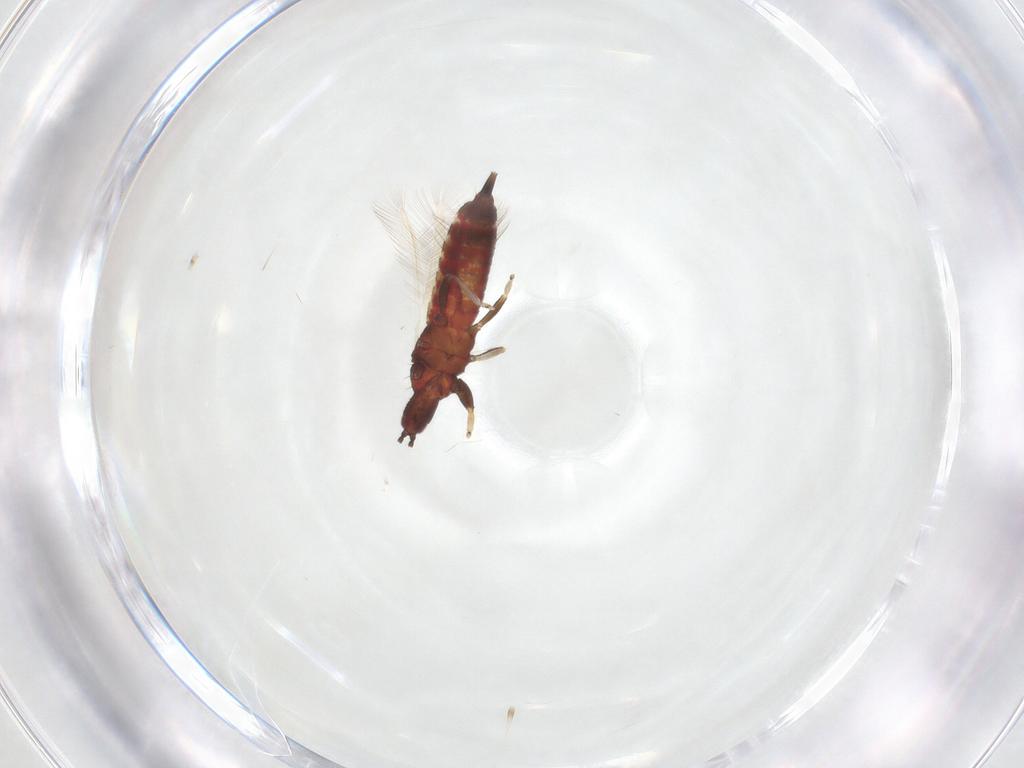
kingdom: Animalia
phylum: Arthropoda
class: Insecta
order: Thysanoptera
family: Phlaeothripidae
